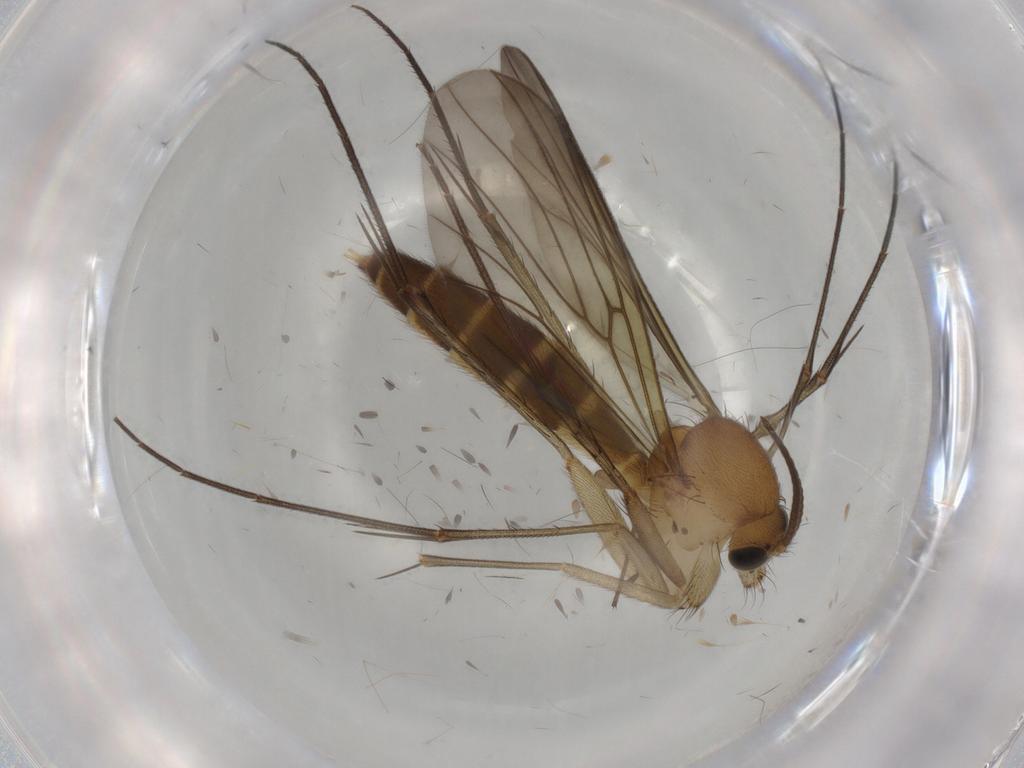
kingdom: Animalia
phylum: Arthropoda
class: Insecta
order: Diptera
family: Mycetophilidae
